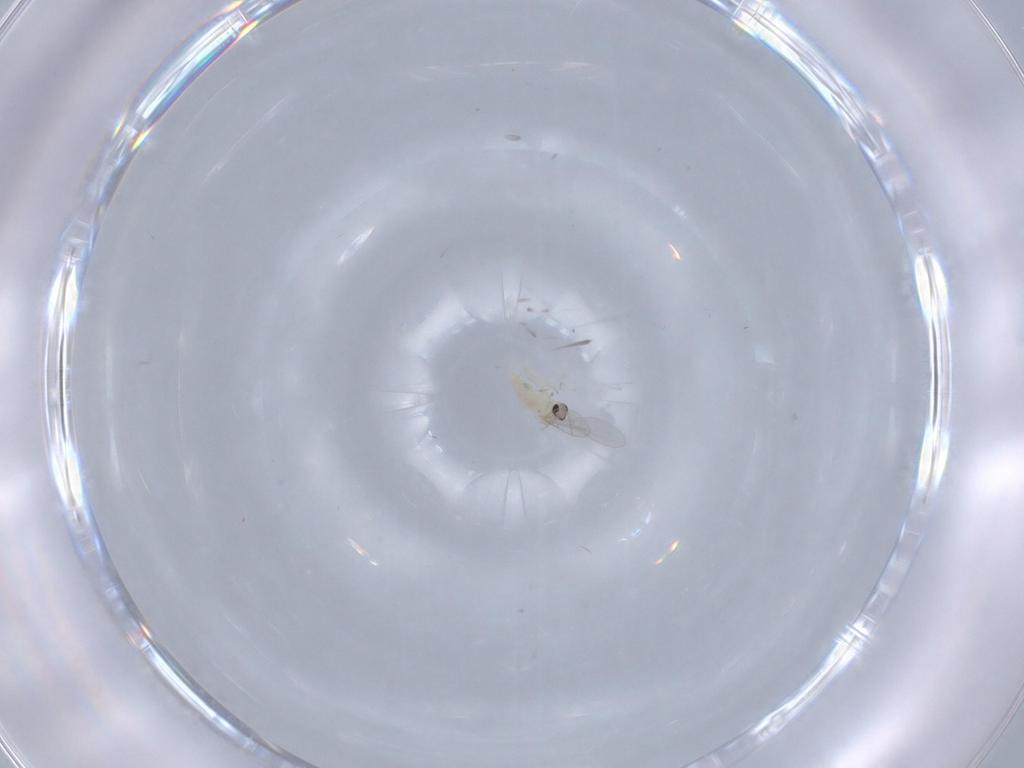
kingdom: Animalia
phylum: Arthropoda
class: Insecta
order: Diptera
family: Cecidomyiidae
